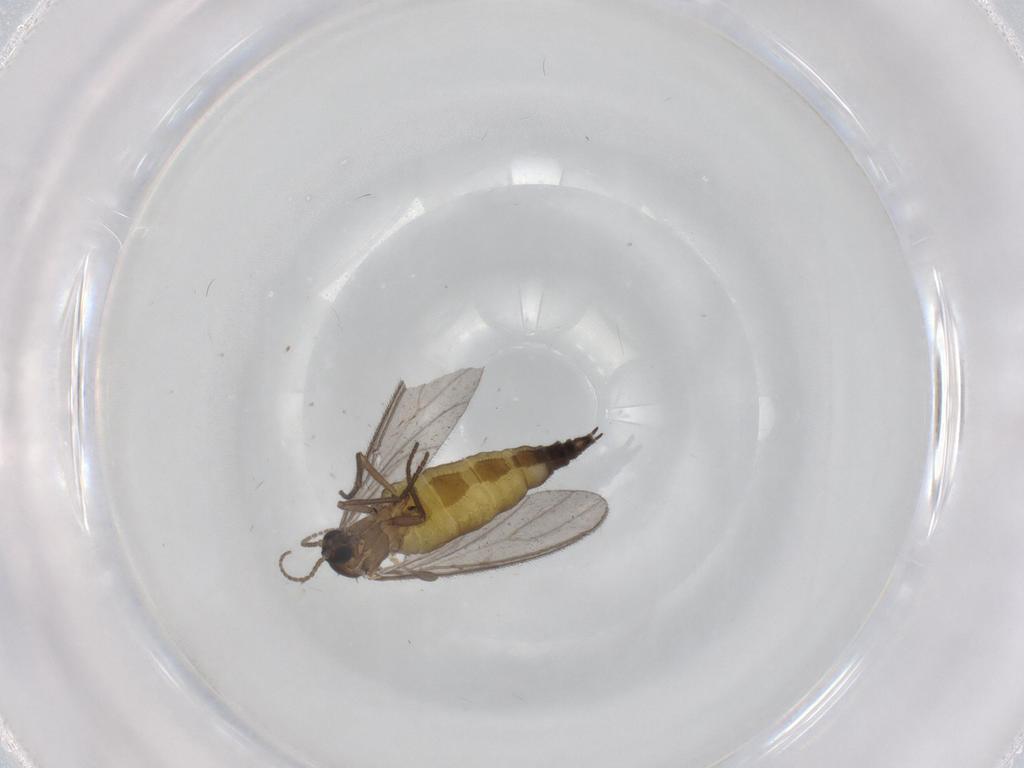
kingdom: Animalia
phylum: Arthropoda
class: Insecta
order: Diptera
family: Sciaridae
